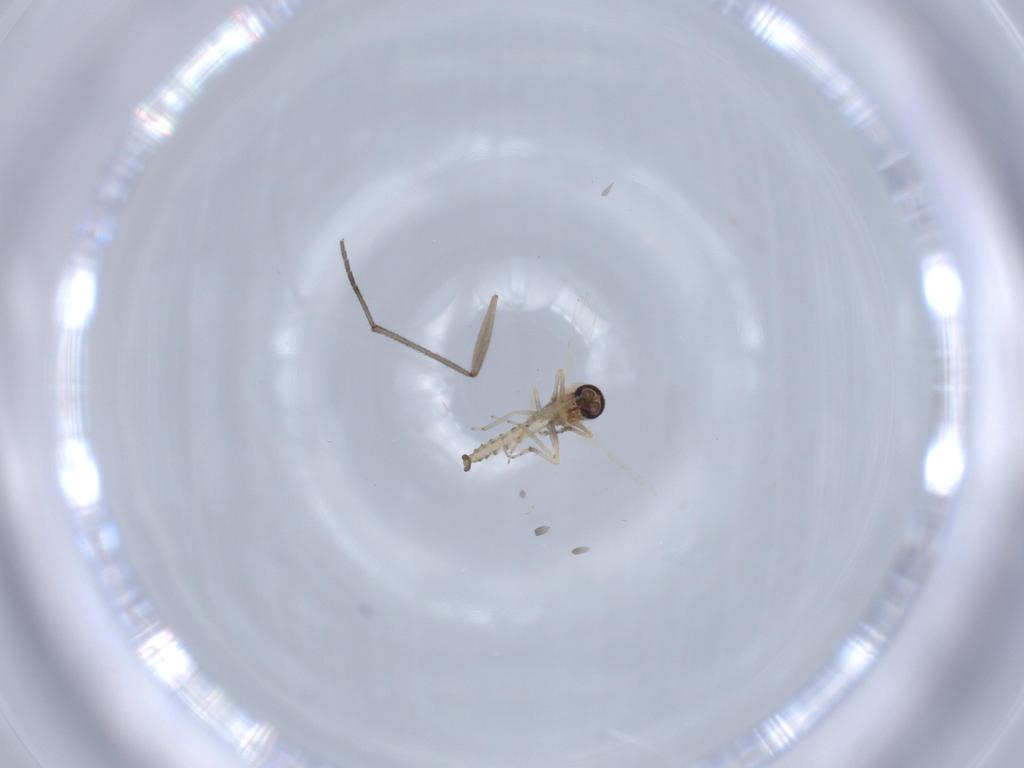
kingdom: Animalia
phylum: Arthropoda
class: Insecta
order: Diptera
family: Sciaridae
